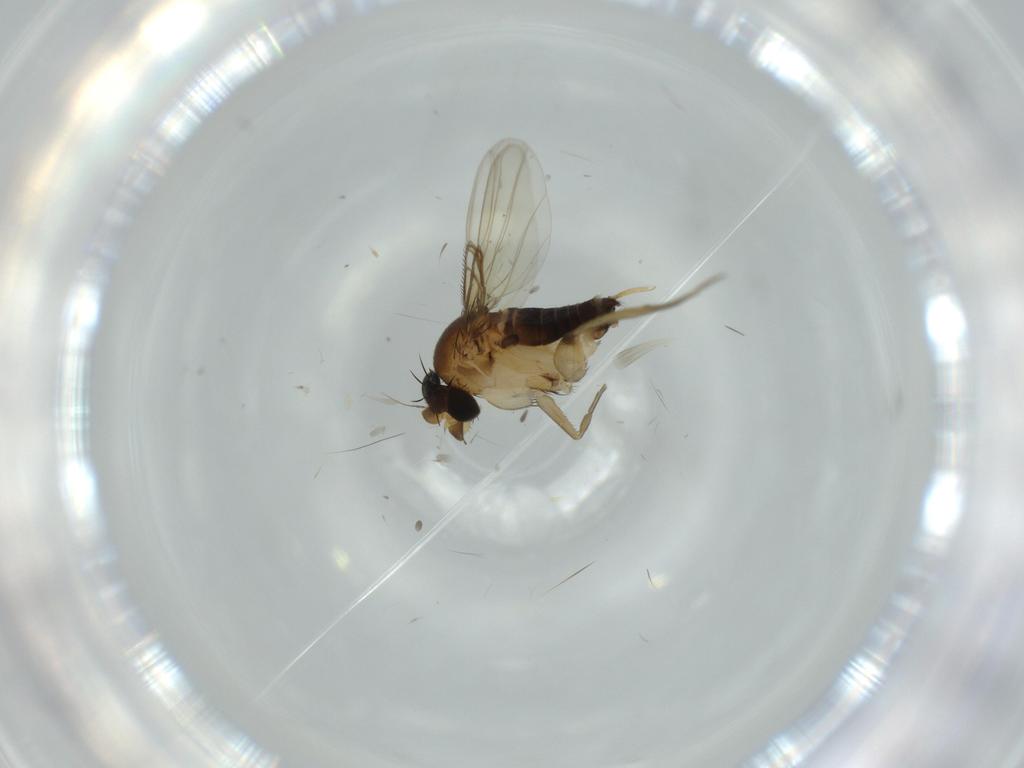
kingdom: Animalia
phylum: Arthropoda
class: Insecta
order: Diptera
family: Phoridae
